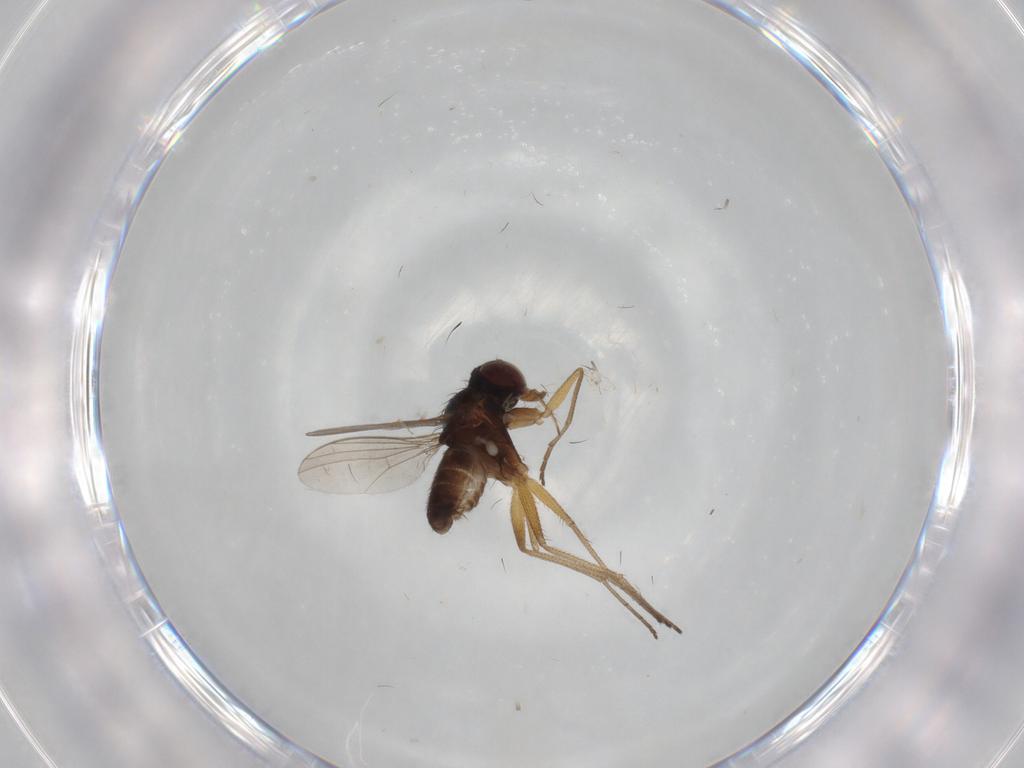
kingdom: Animalia
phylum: Arthropoda
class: Insecta
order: Diptera
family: Dolichopodidae
